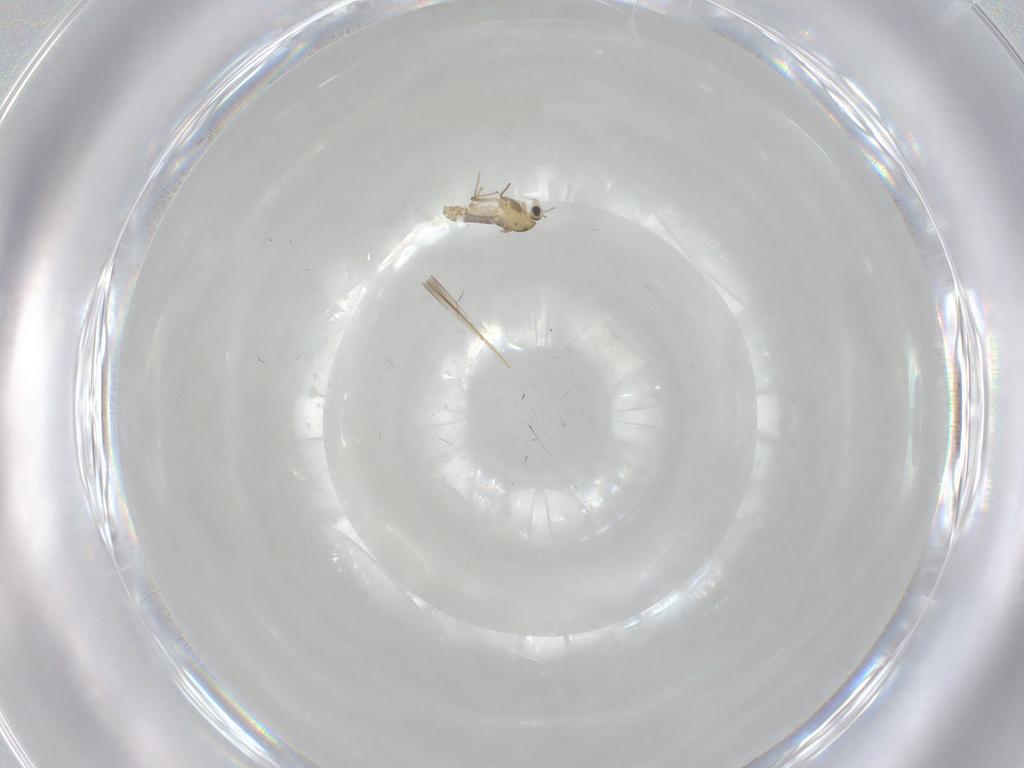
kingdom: Animalia
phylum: Arthropoda
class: Insecta
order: Diptera
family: Chironomidae
